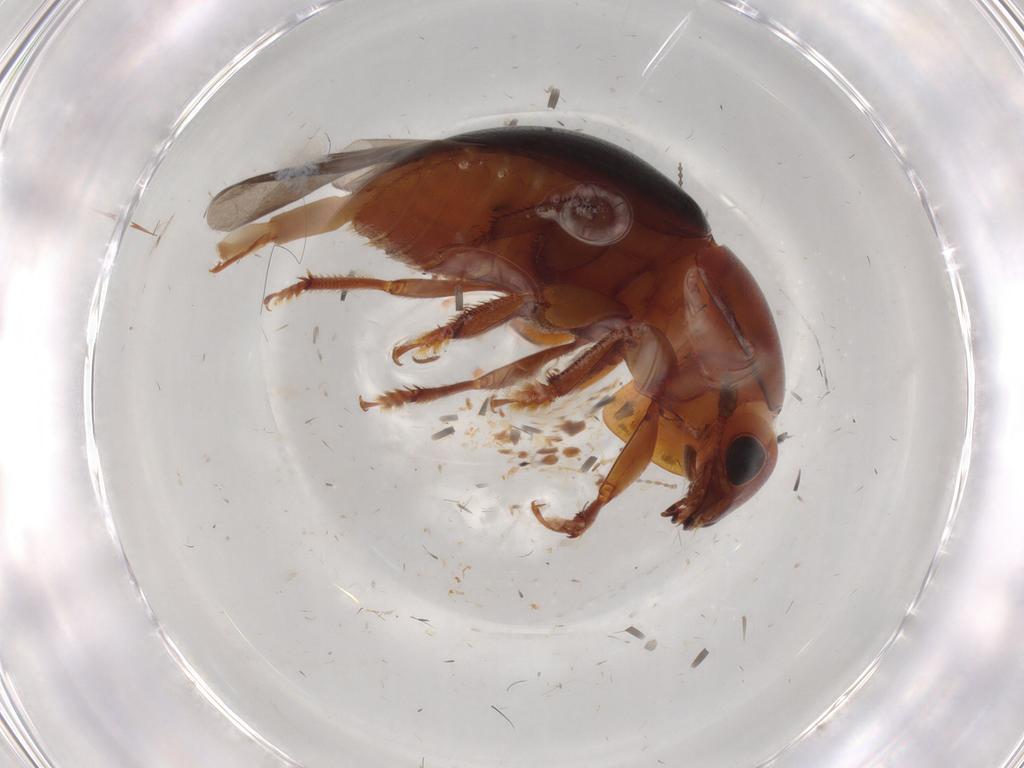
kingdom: Animalia
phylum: Arthropoda
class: Insecta
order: Coleoptera
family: Nitidulidae
